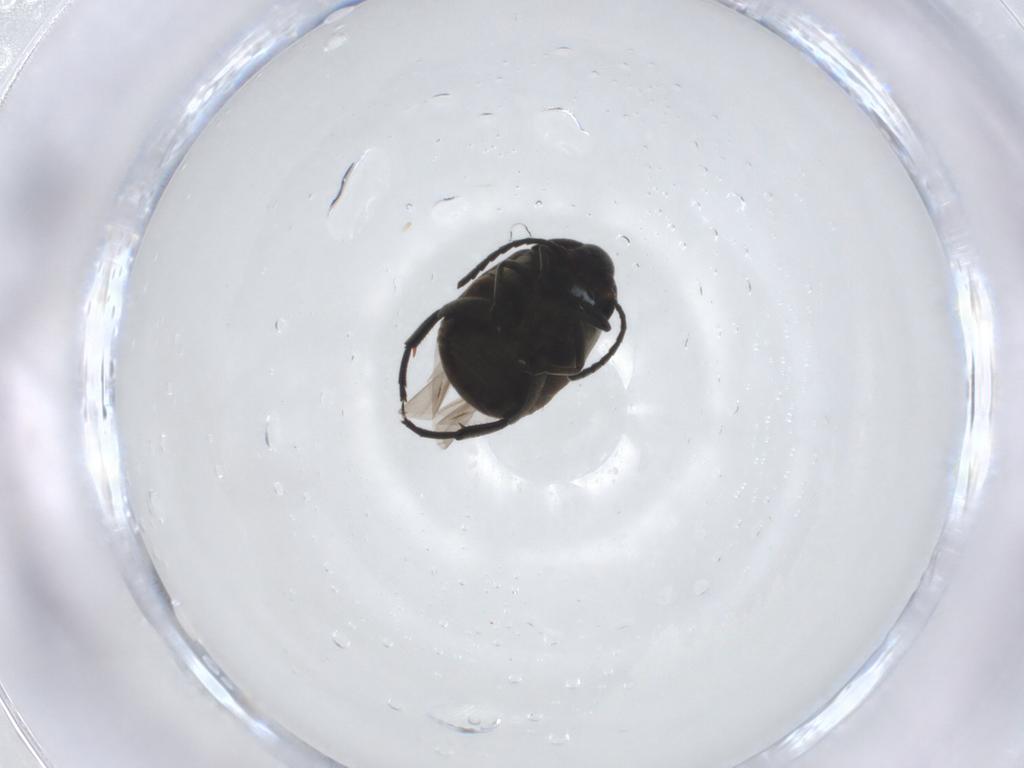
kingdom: Animalia
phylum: Arthropoda
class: Insecta
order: Coleoptera
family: Chrysomelidae
